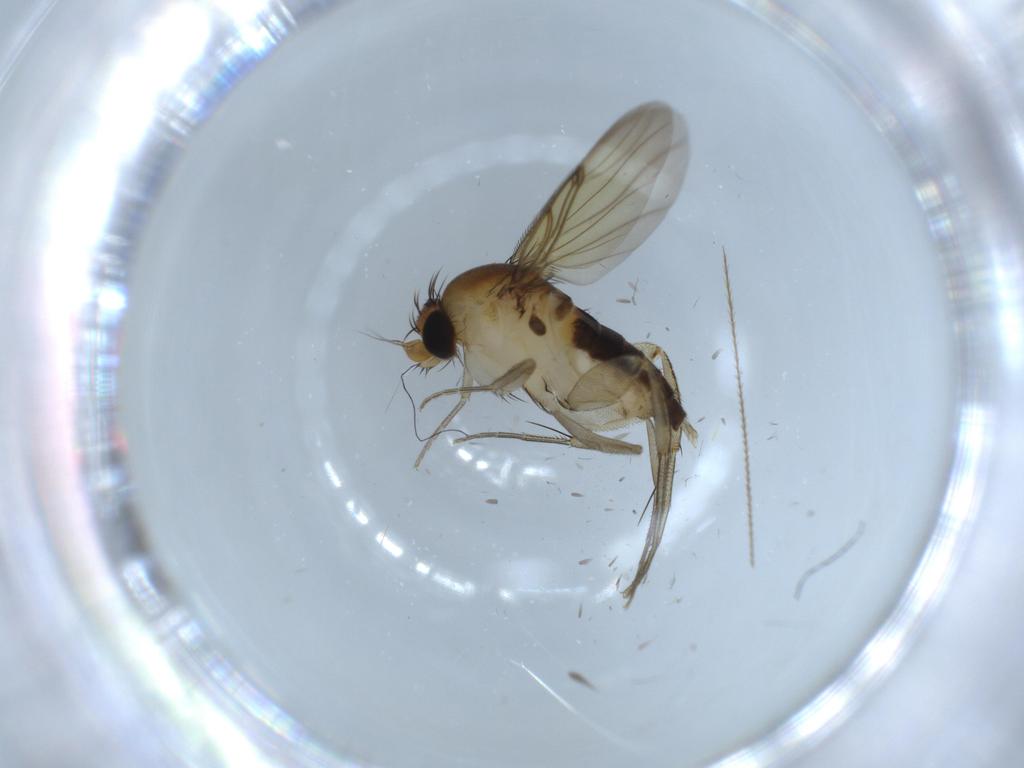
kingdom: Animalia
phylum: Arthropoda
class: Insecta
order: Diptera
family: Phoridae
